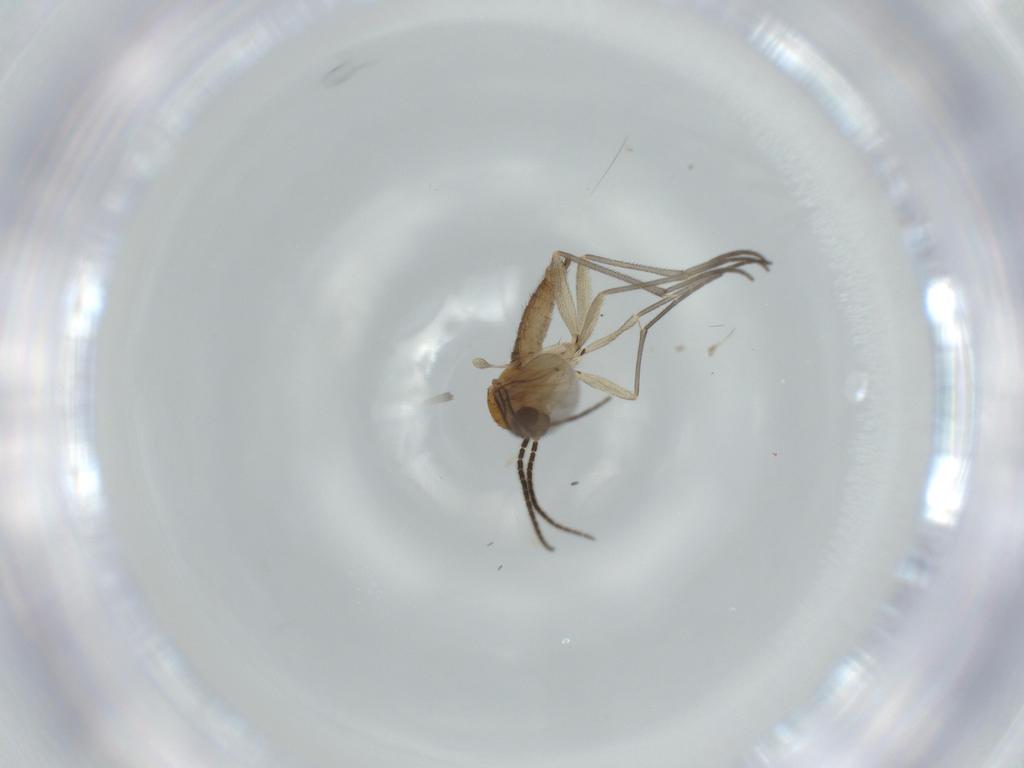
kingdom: Animalia
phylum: Arthropoda
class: Insecta
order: Diptera
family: Sciaridae
